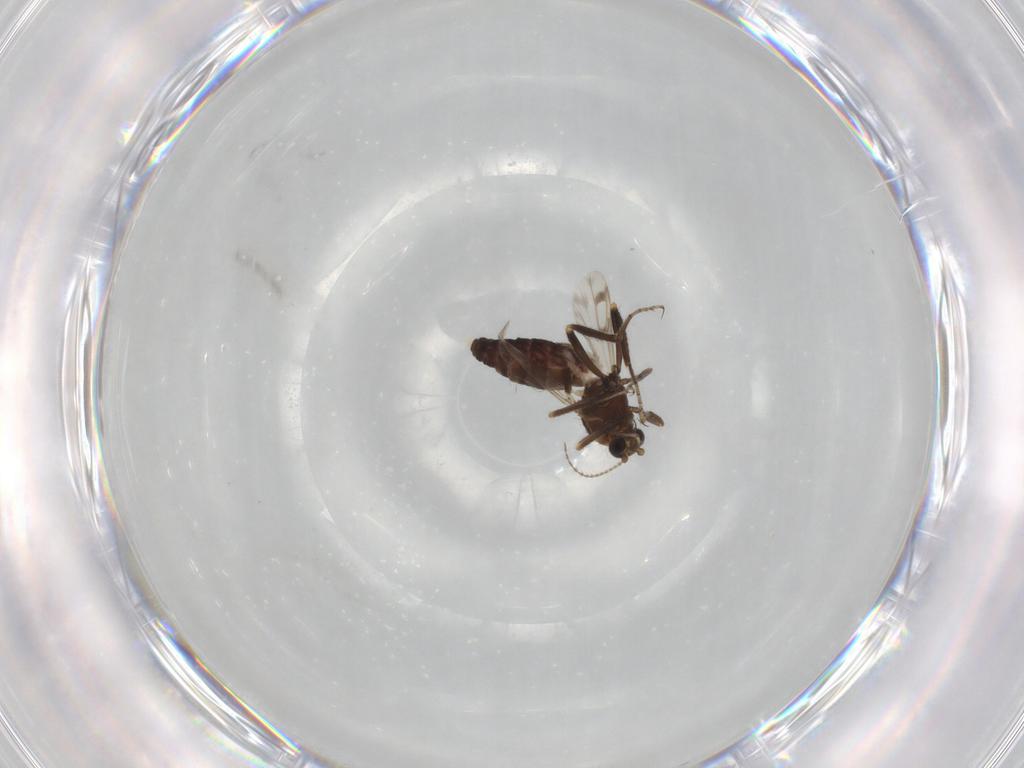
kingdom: Animalia
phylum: Arthropoda
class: Insecta
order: Diptera
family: Ceratopogonidae
